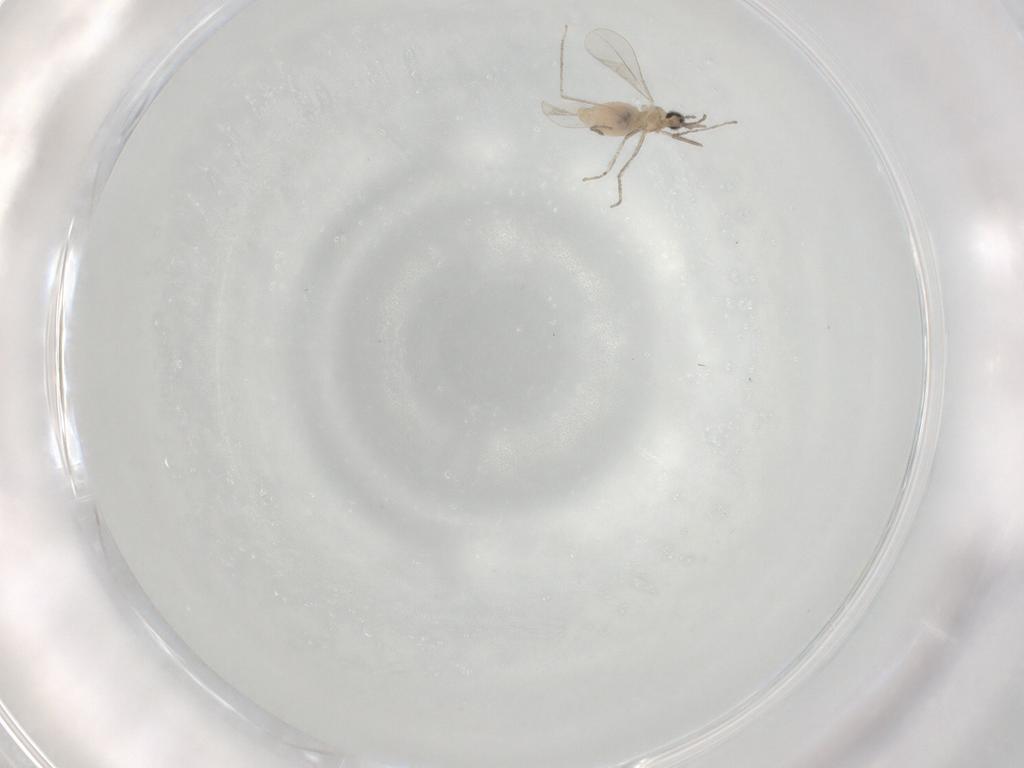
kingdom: Animalia
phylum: Arthropoda
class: Insecta
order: Diptera
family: Cecidomyiidae
